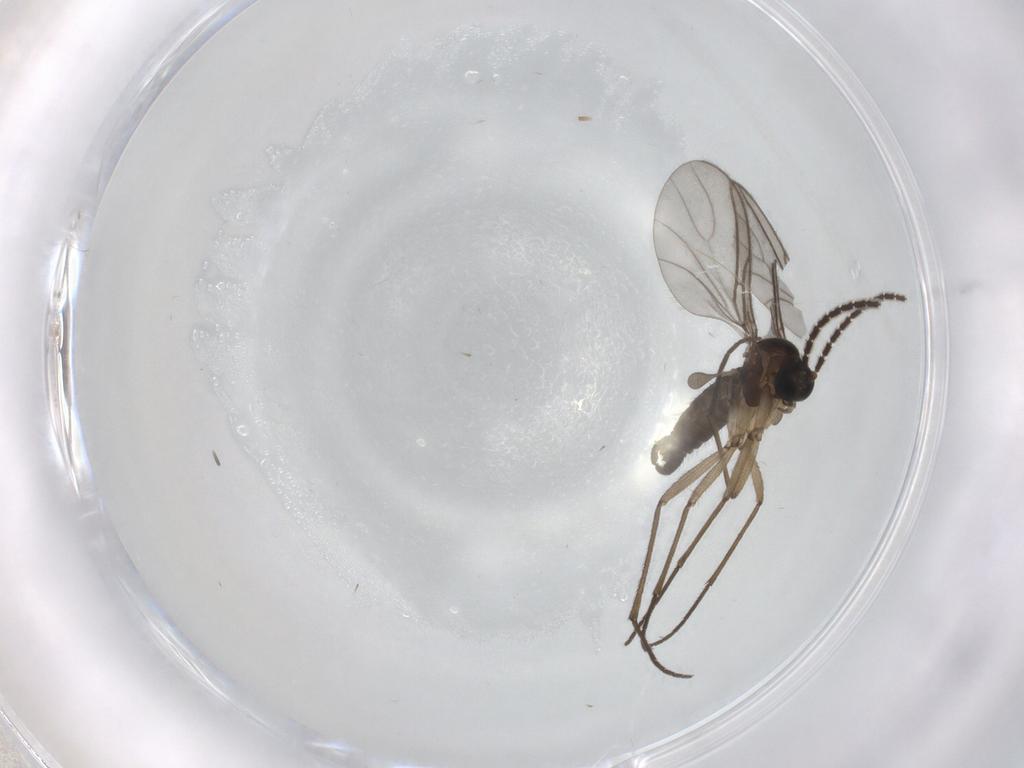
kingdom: Animalia
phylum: Arthropoda
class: Insecta
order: Diptera
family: Sciaridae
